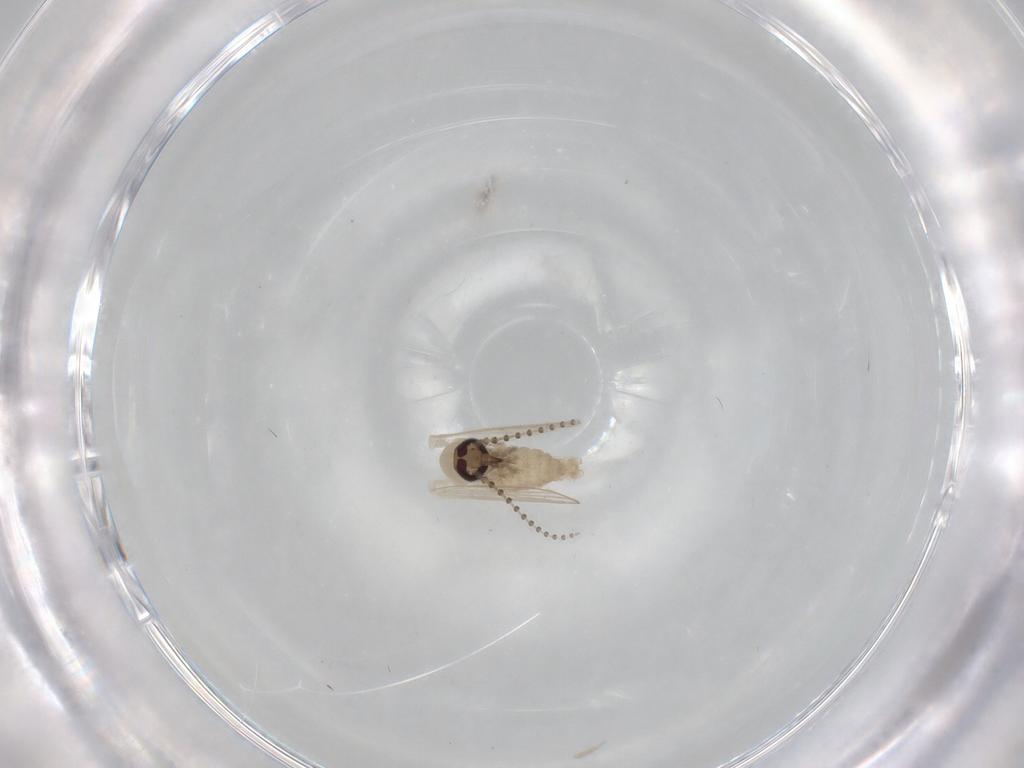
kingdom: Animalia
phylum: Arthropoda
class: Insecta
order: Diptera
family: Psychodidae
